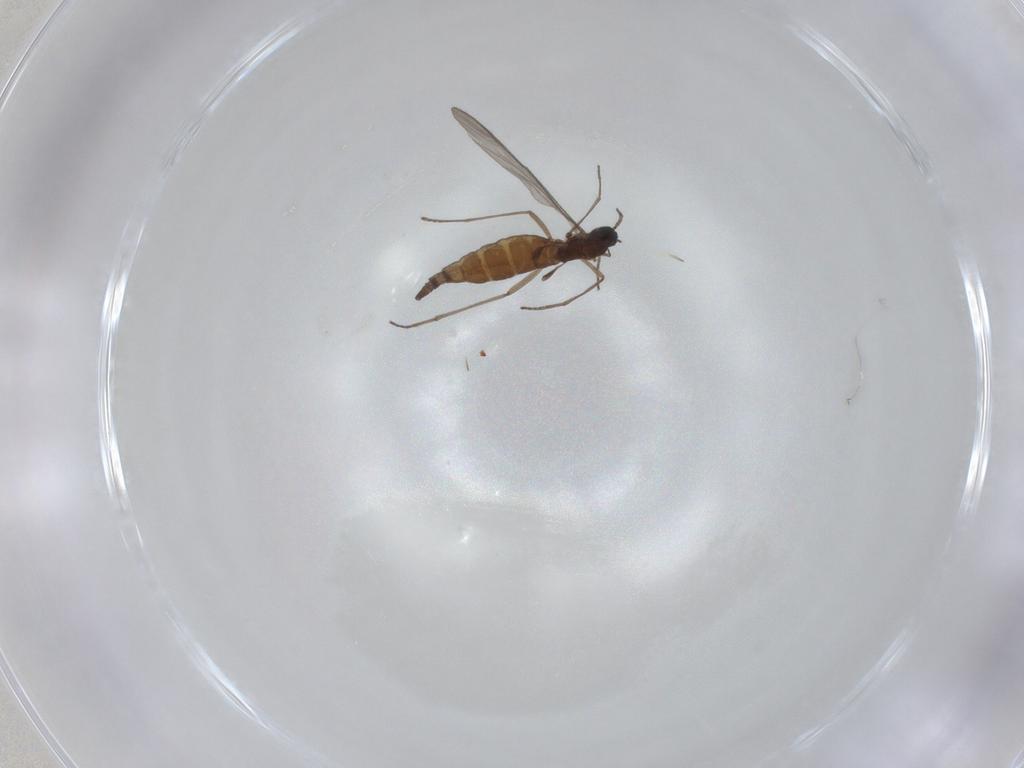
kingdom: Animalia
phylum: Arthropoda
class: Insecta
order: Diptera
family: Sciaridae
